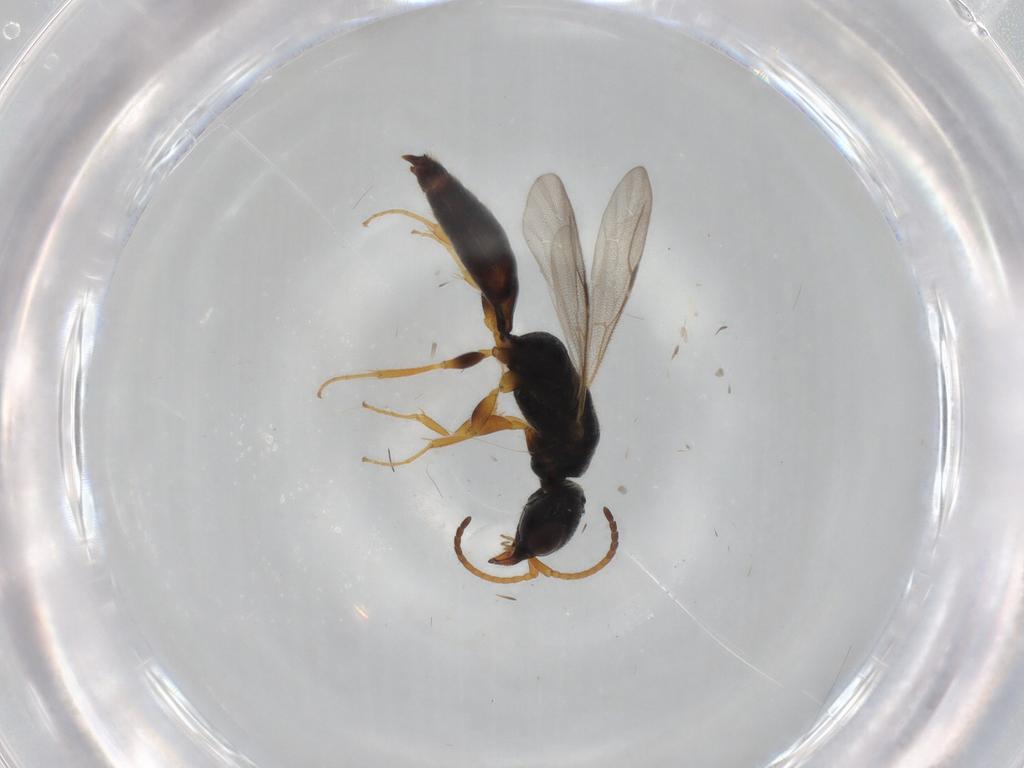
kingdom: Animalia
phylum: Arthropoda
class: Insecta
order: Hymenoptera
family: Bethylidae
